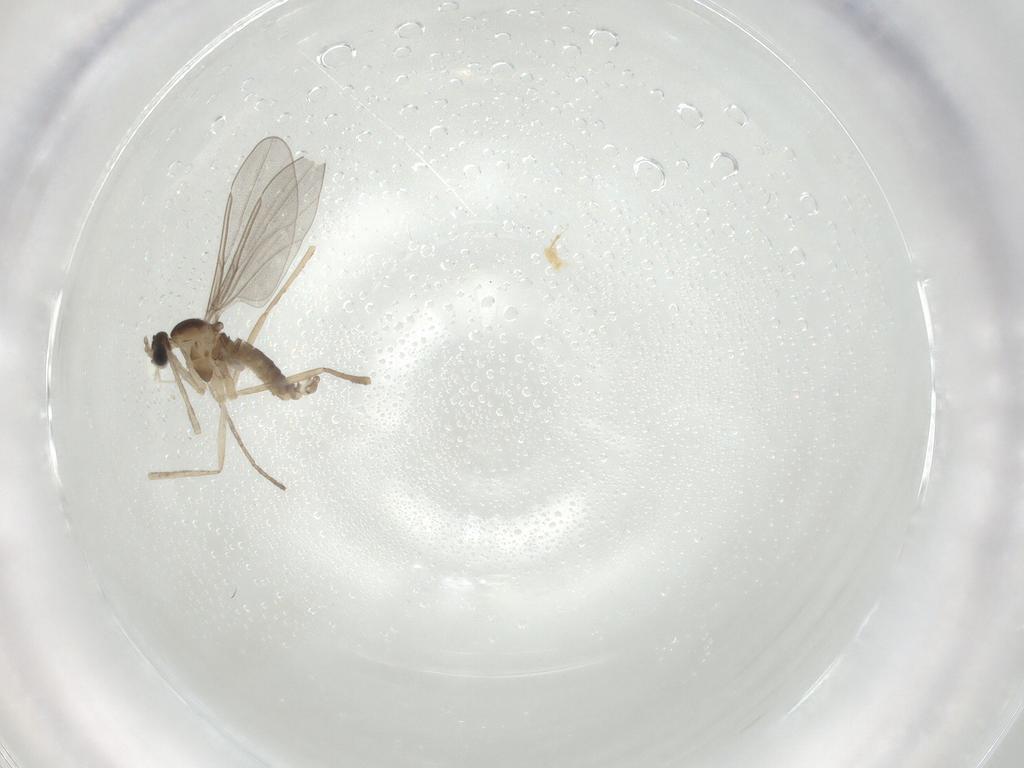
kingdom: Animalia
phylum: Arthropoda
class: Insecta
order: Diptera
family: Cecidomyiidae
